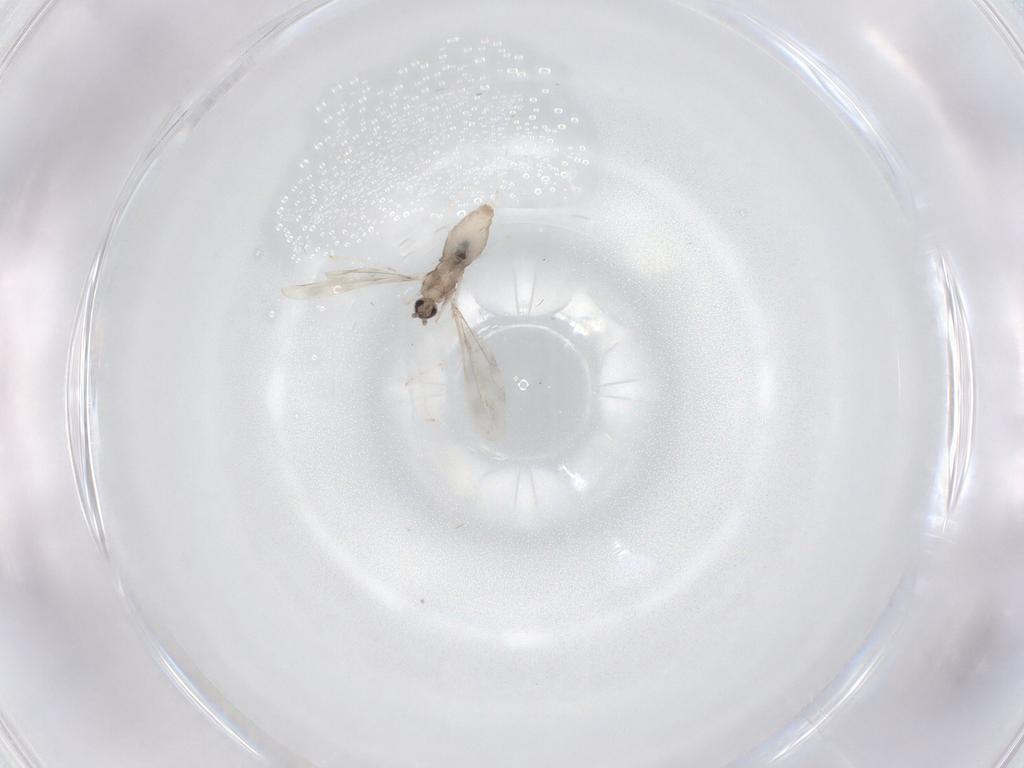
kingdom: Animalia
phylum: Arthropoda
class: Insecta
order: Diptera
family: Cecidomyiidae
